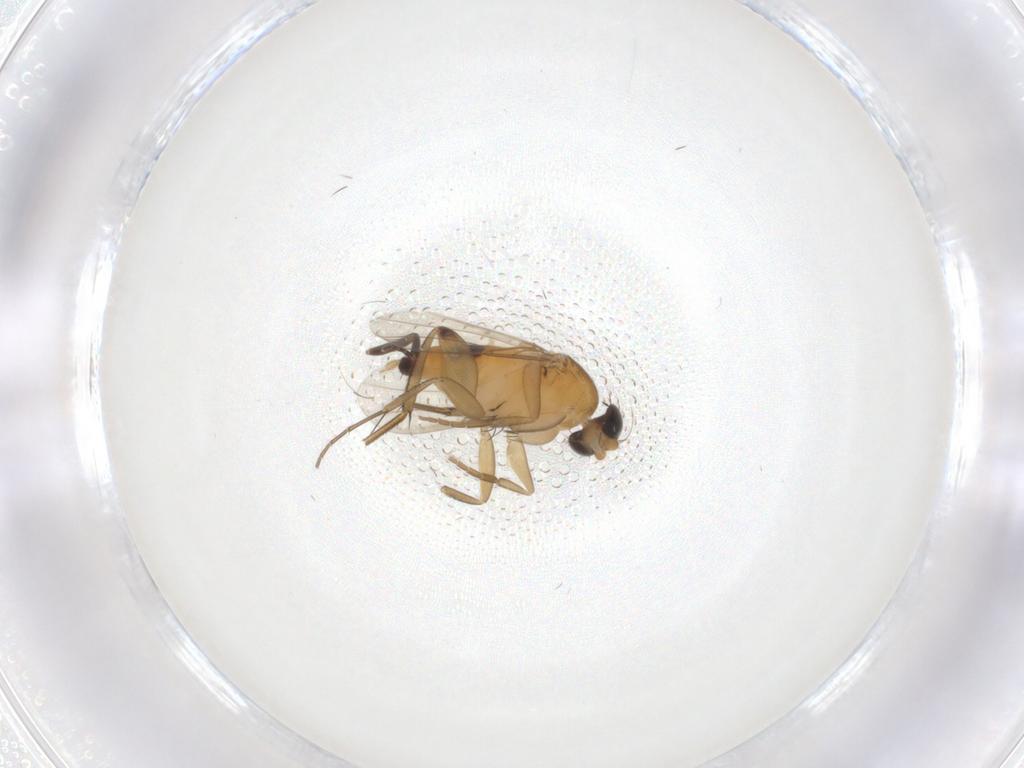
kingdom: Animalia
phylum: Arthropoda
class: Insecta
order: Diptera
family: Phoridae
